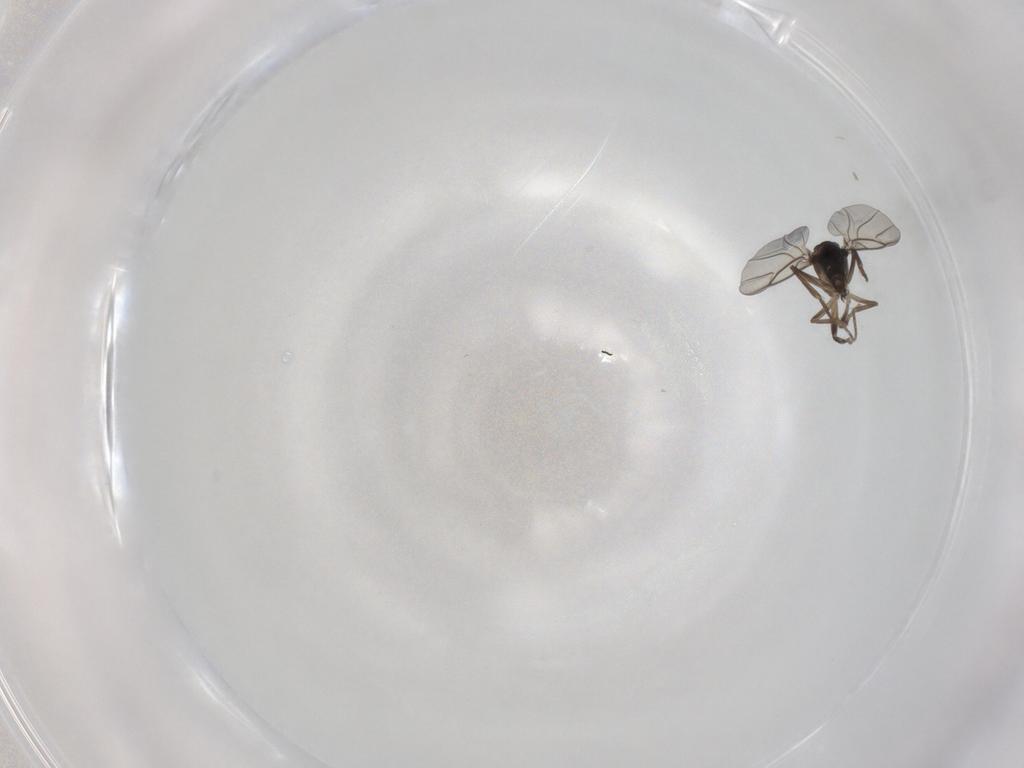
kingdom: Animalia
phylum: Arthropoda
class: Insecta
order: Diptera
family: Phoridae
